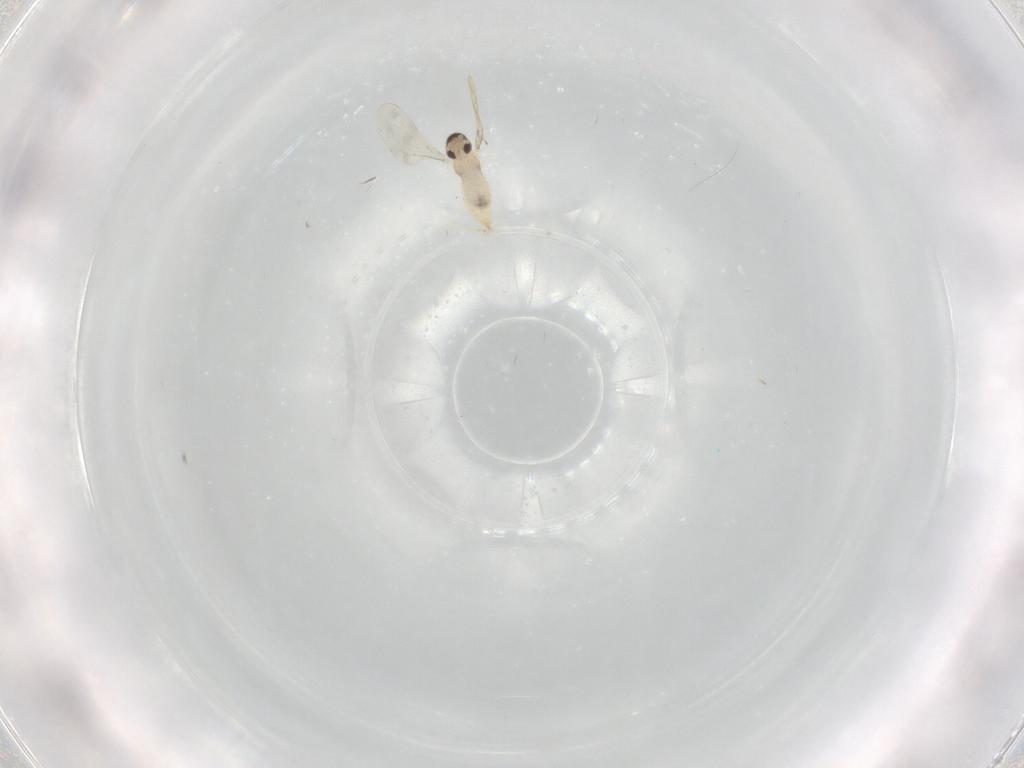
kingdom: Animalia
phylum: Arthropoda
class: Insecta
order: Diptera
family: Cecidomyiidae
